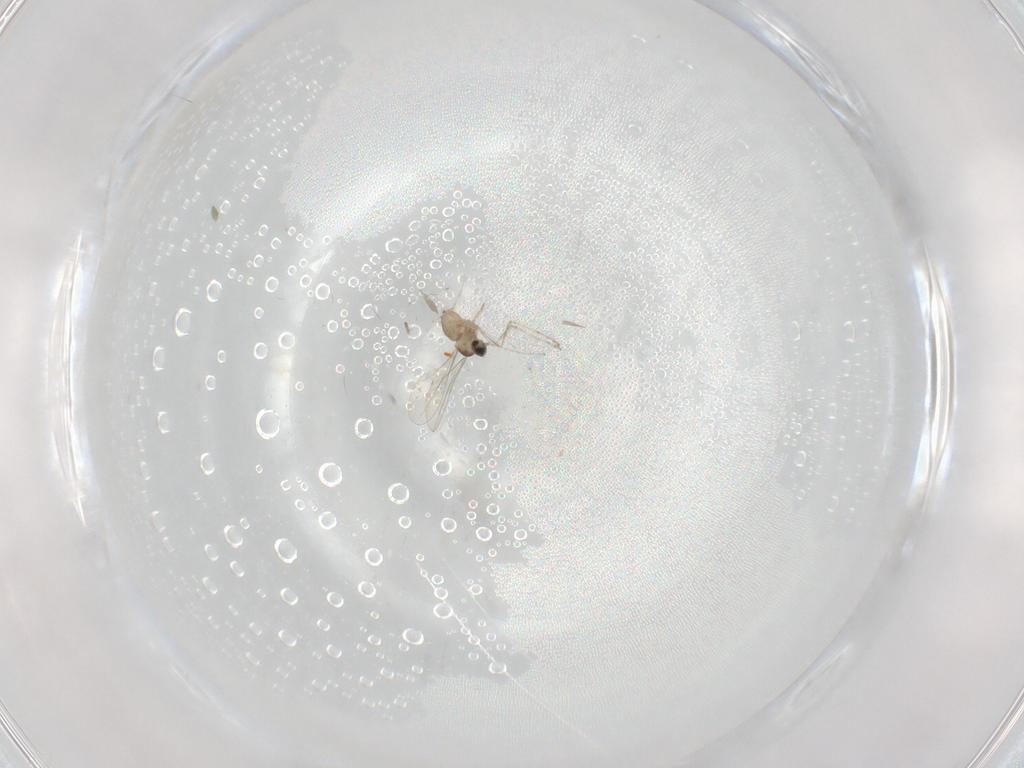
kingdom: Animalia
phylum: Arthropoda
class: Insecta
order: Diptera
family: Cecidomyiidae
